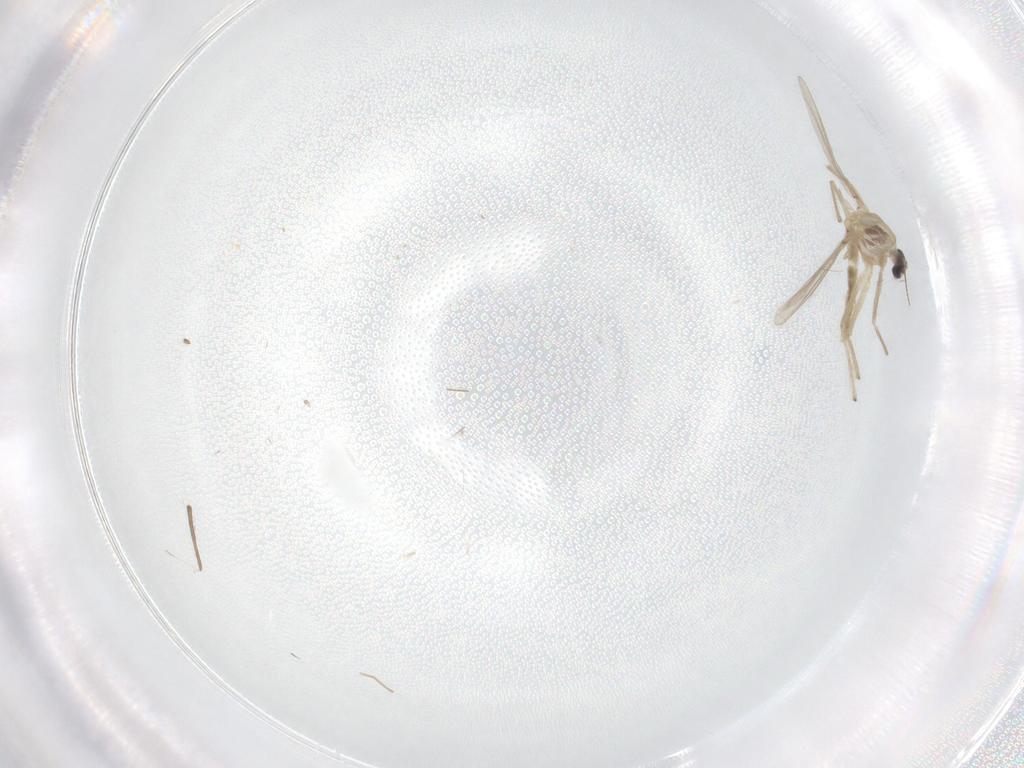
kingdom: Animalia
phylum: Arthropoda
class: Insecta
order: Diptera
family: Chironomidae
